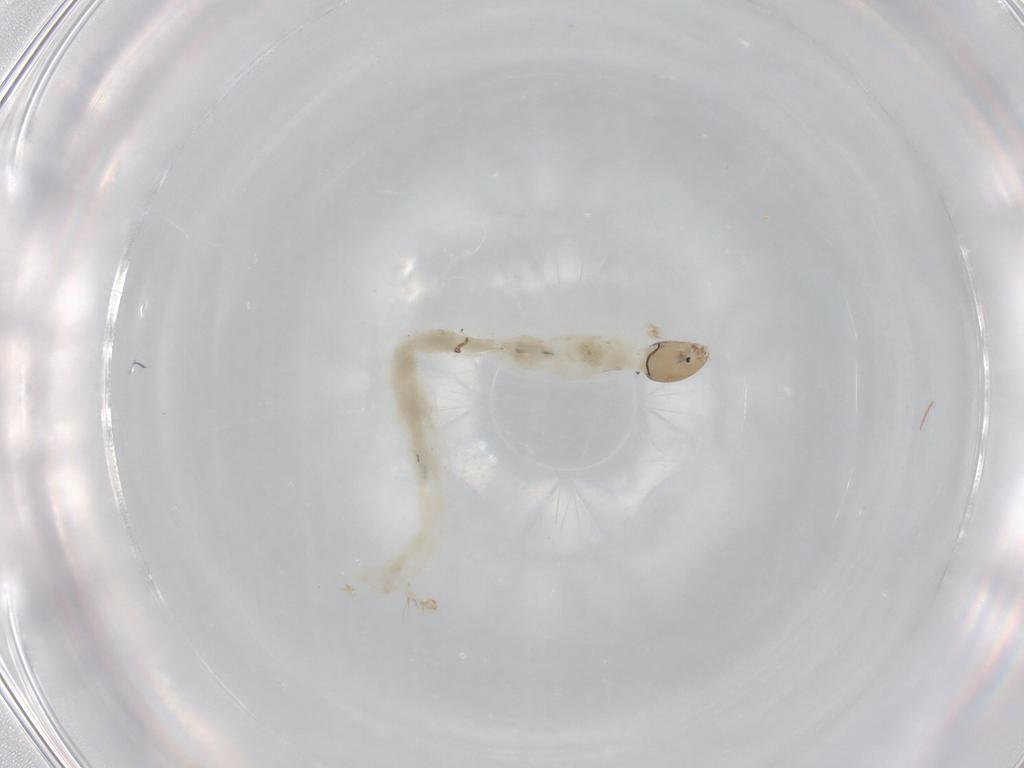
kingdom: Animalia
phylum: Arthropoda
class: Insecta
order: Diptera
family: Chironomidae
